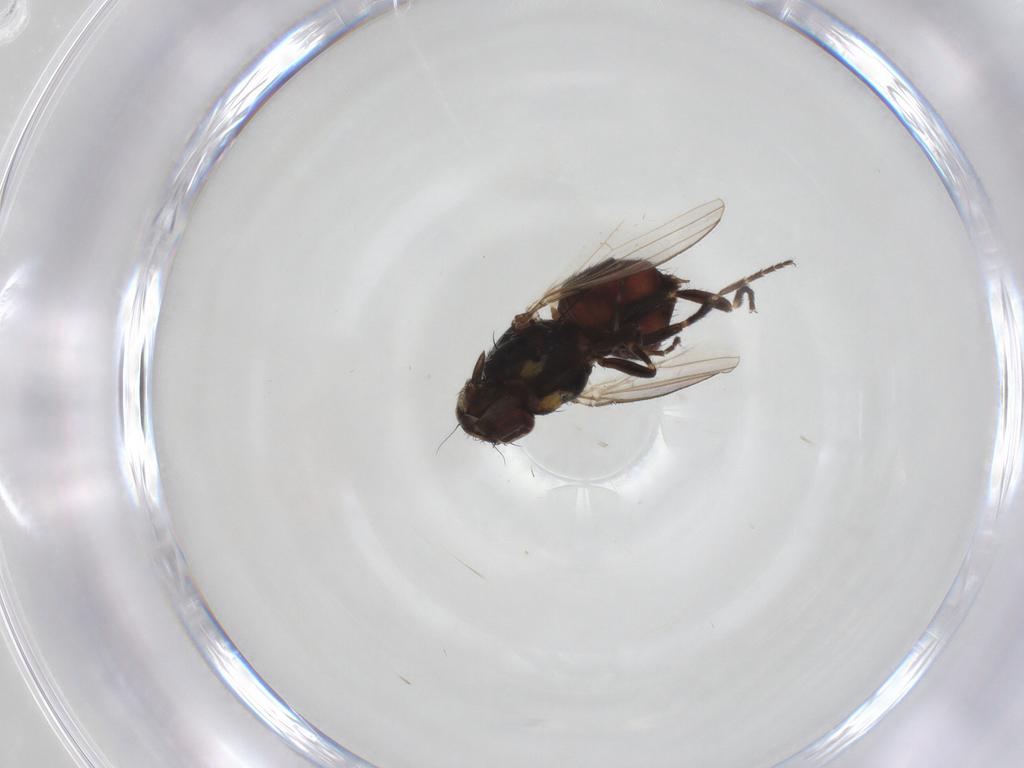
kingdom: Animalia
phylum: Arthropoda
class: Insecta
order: Diptera
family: Milichiidae
